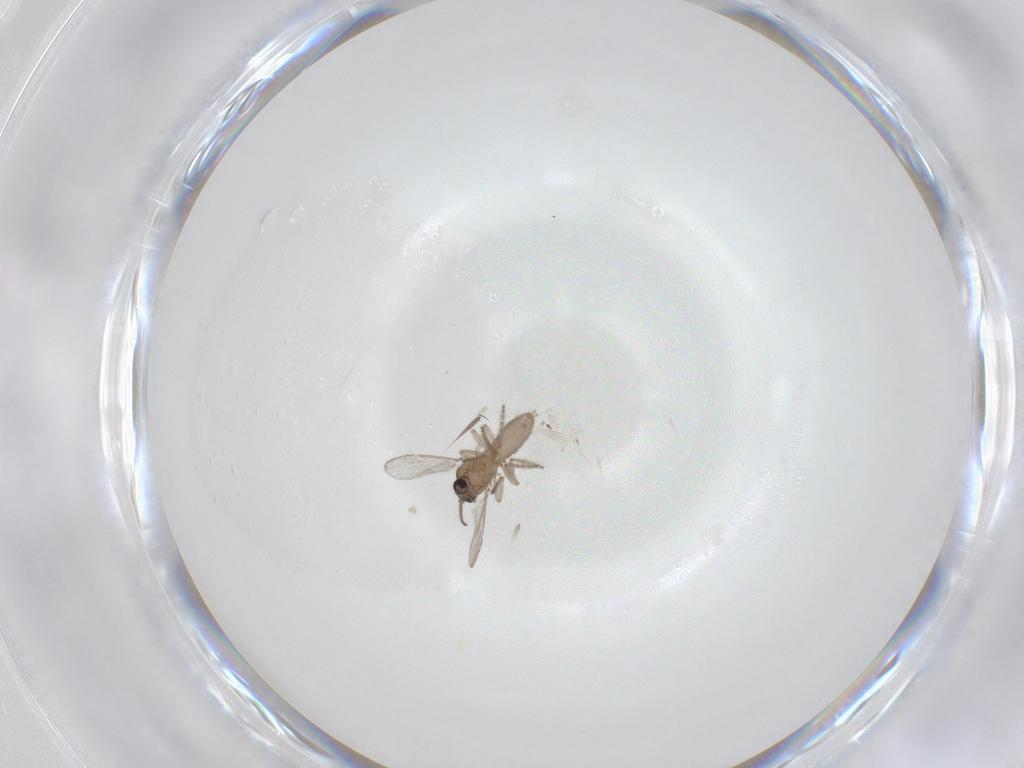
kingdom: Animalia
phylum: Arthropoda
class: Insecta
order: Diptera
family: Ceratopogonidae
